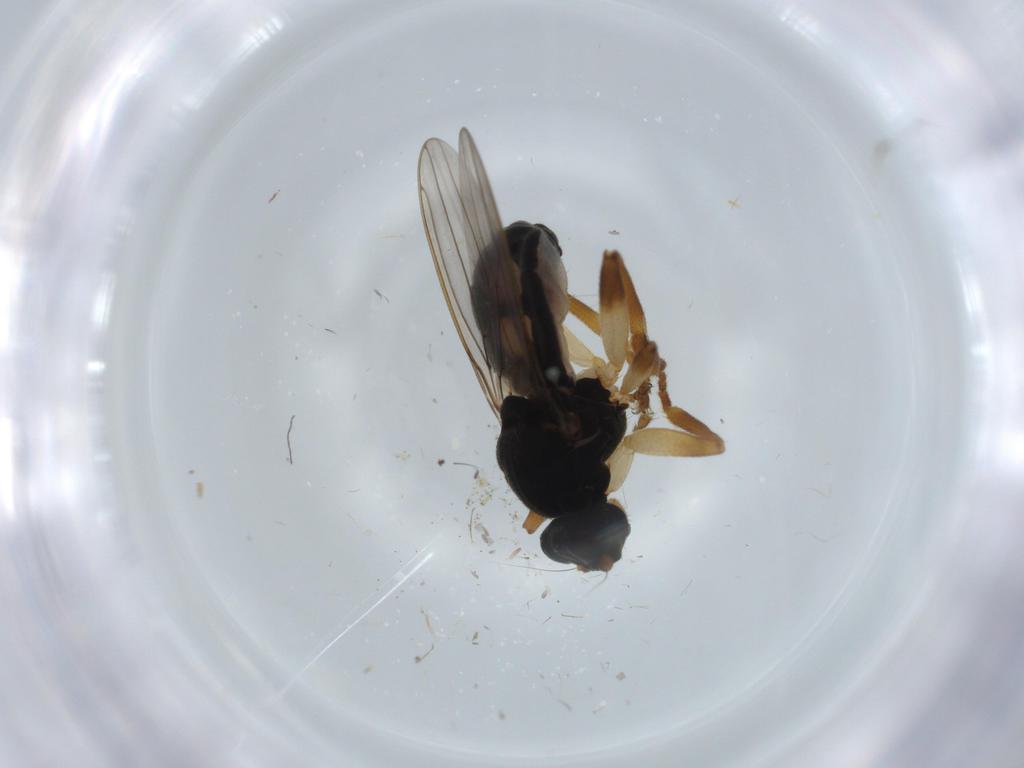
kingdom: Animalia
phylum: Arthropoda
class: Insecta
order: Diptera
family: Sphaeroceridae
